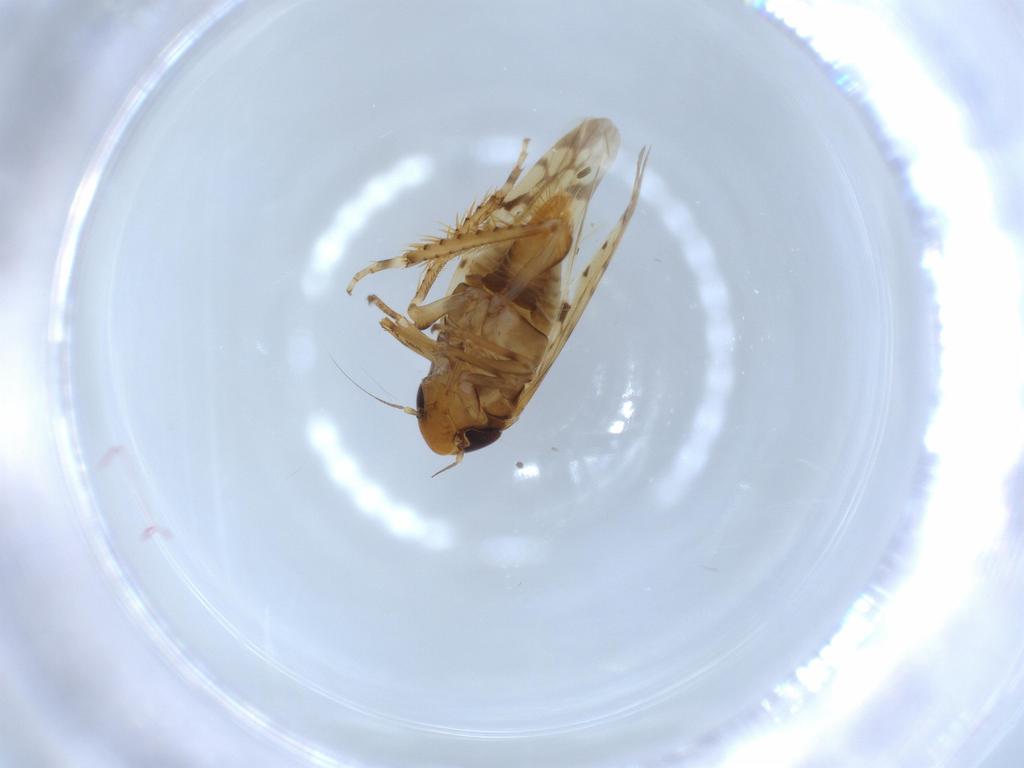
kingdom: Animalia
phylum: Arthropoda
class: Insecta
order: Hemiptera
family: Cicadellidae
